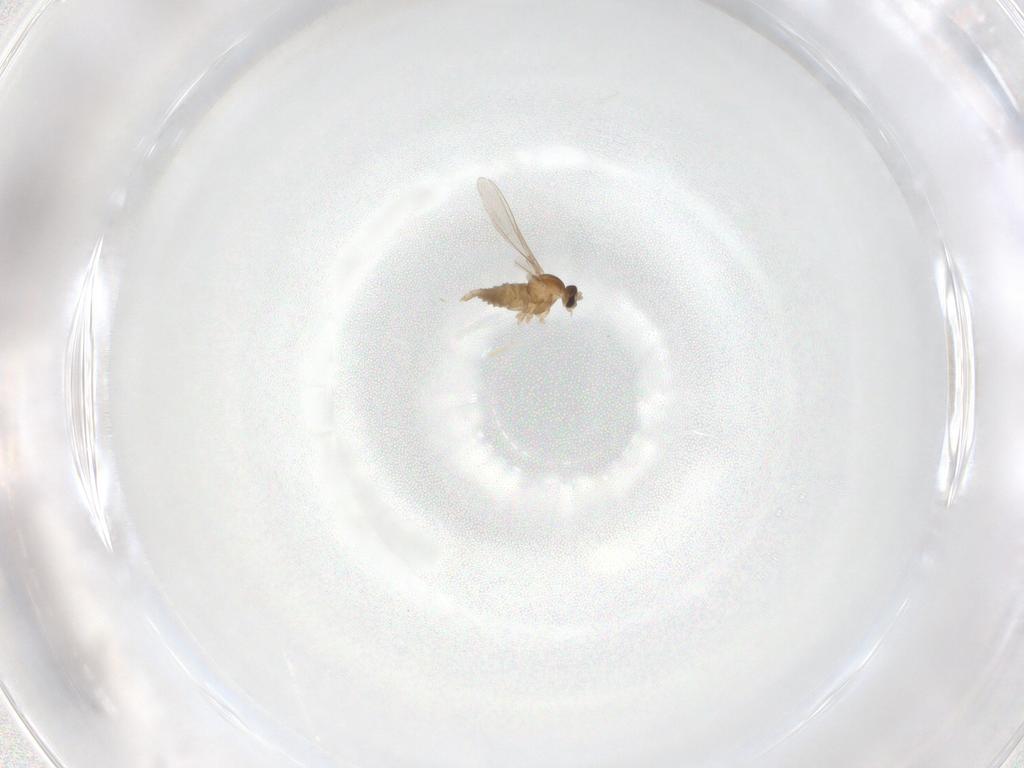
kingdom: Animalia
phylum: Arthropoda
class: Insecta
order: Diptera
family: Cecidomyiidae
